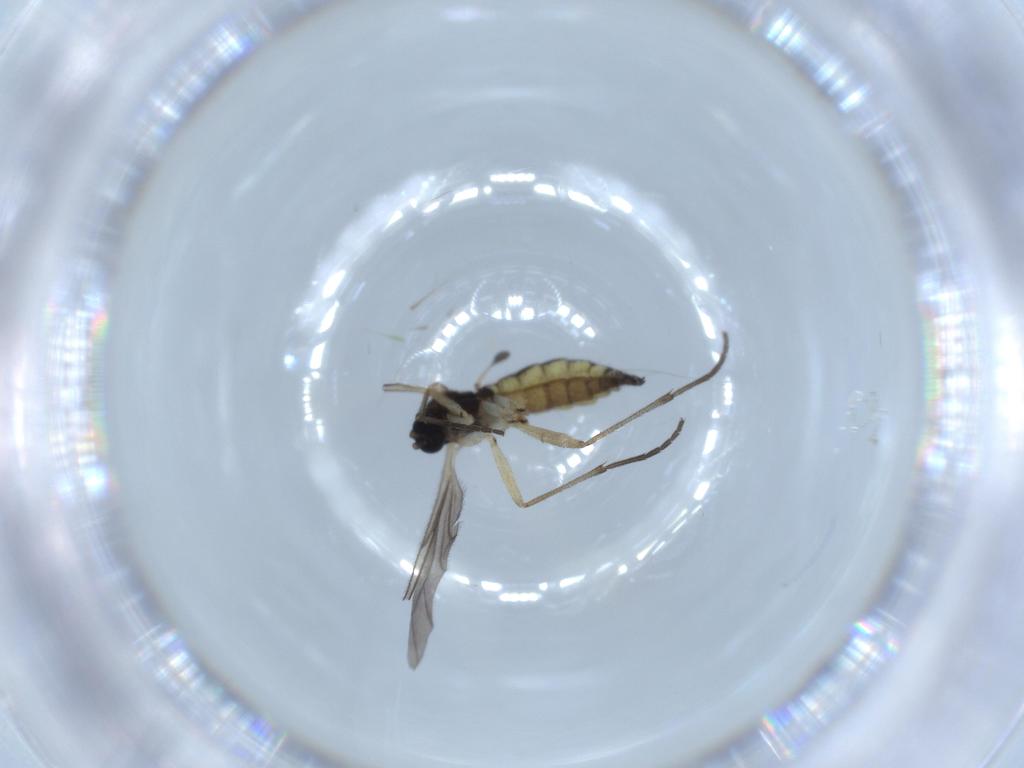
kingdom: Animalia
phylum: Arthropoda
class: Insecta
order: Diptera
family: Sciaridae
